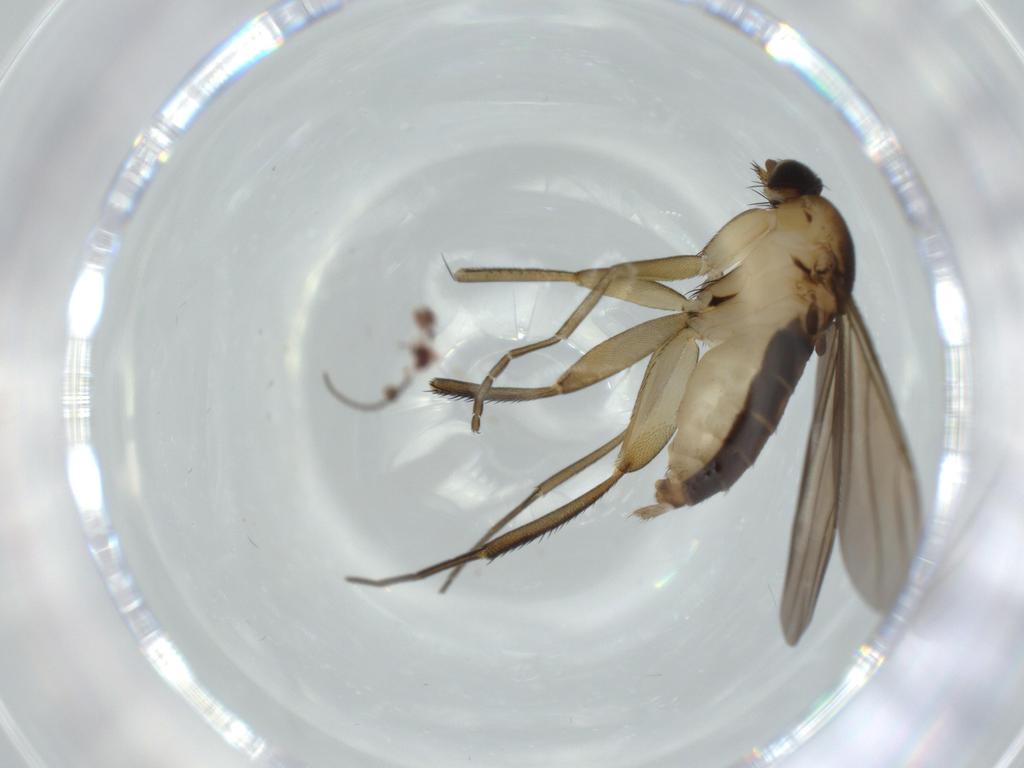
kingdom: Animalia
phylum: Arthropoda
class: Insecta
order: Diptera
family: Phoridae
